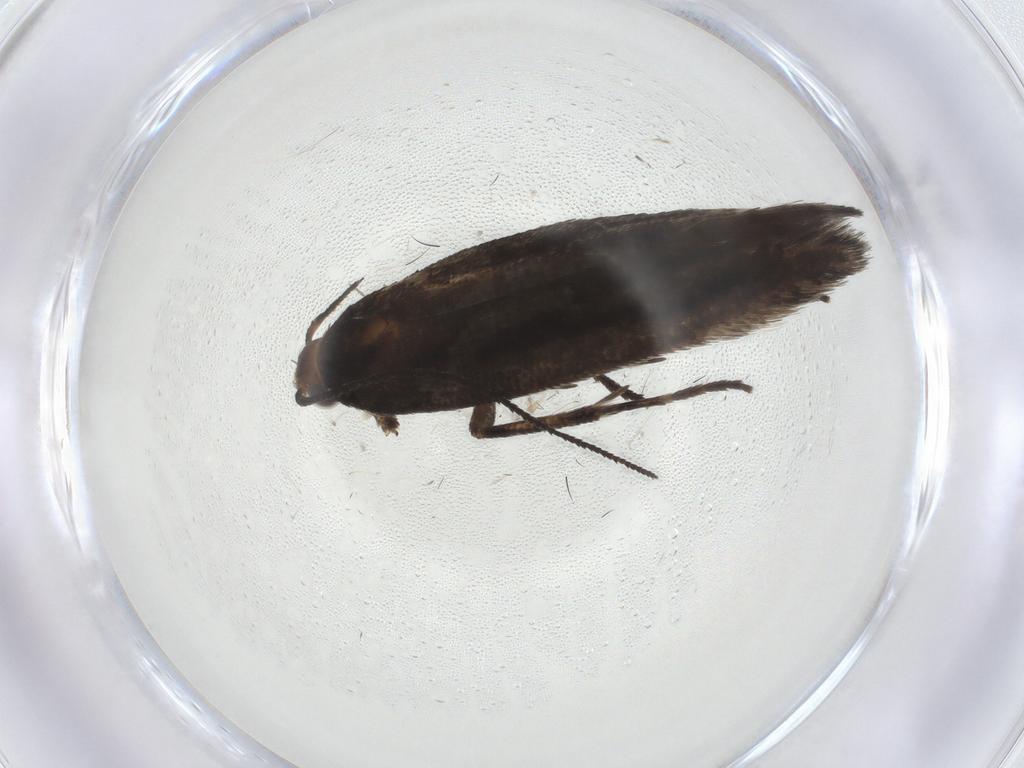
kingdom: Animalia
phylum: Arthropoda
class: Insecta
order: Lepidoptera
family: Gelechiidae
